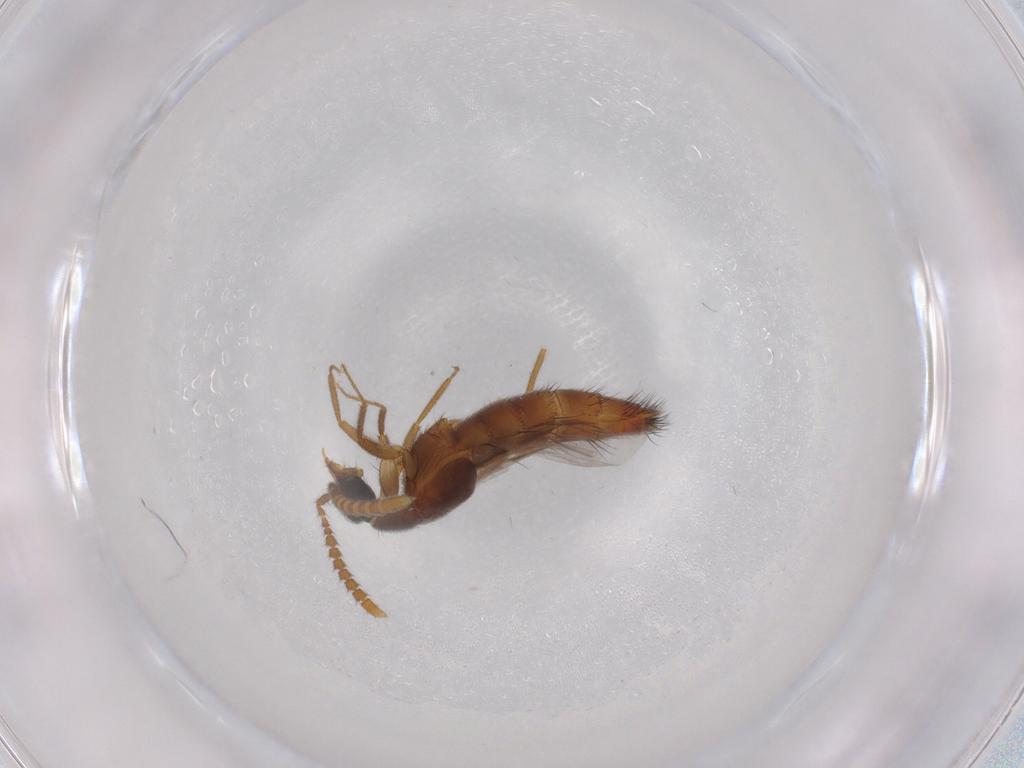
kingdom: Animalia
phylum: Arthropoda
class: Insecta
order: Coleoptera
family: Staphylinidae
